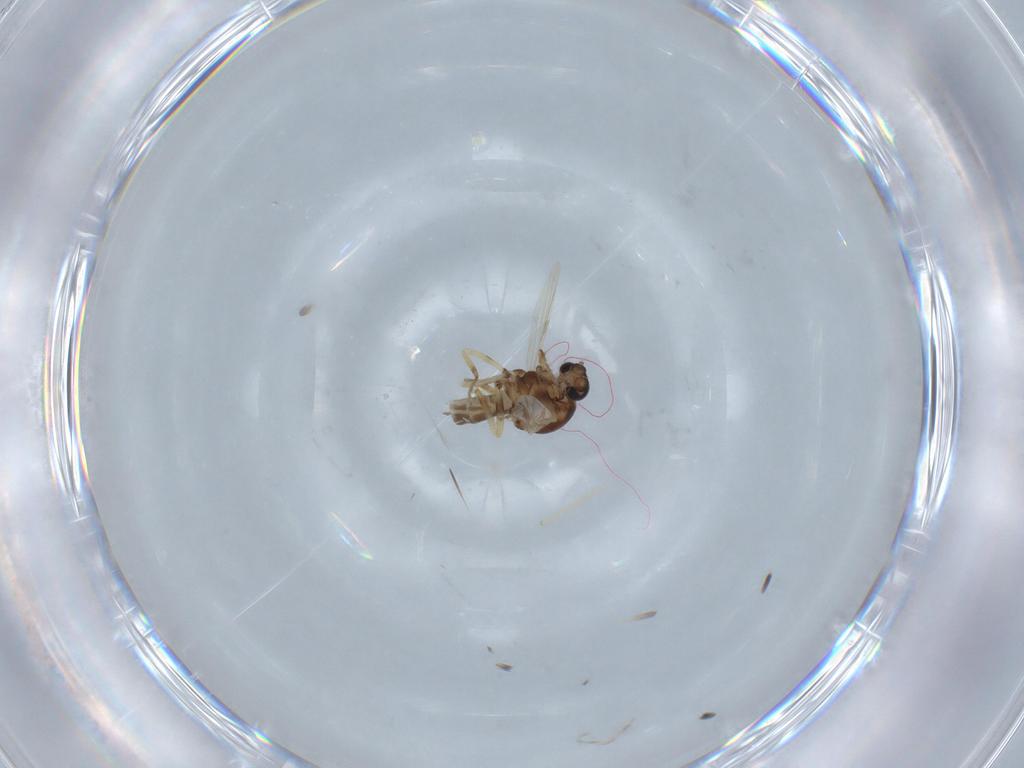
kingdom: Animalia
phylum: Arthropoda
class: Insecta
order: Diptera
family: Ceratopogonidae
